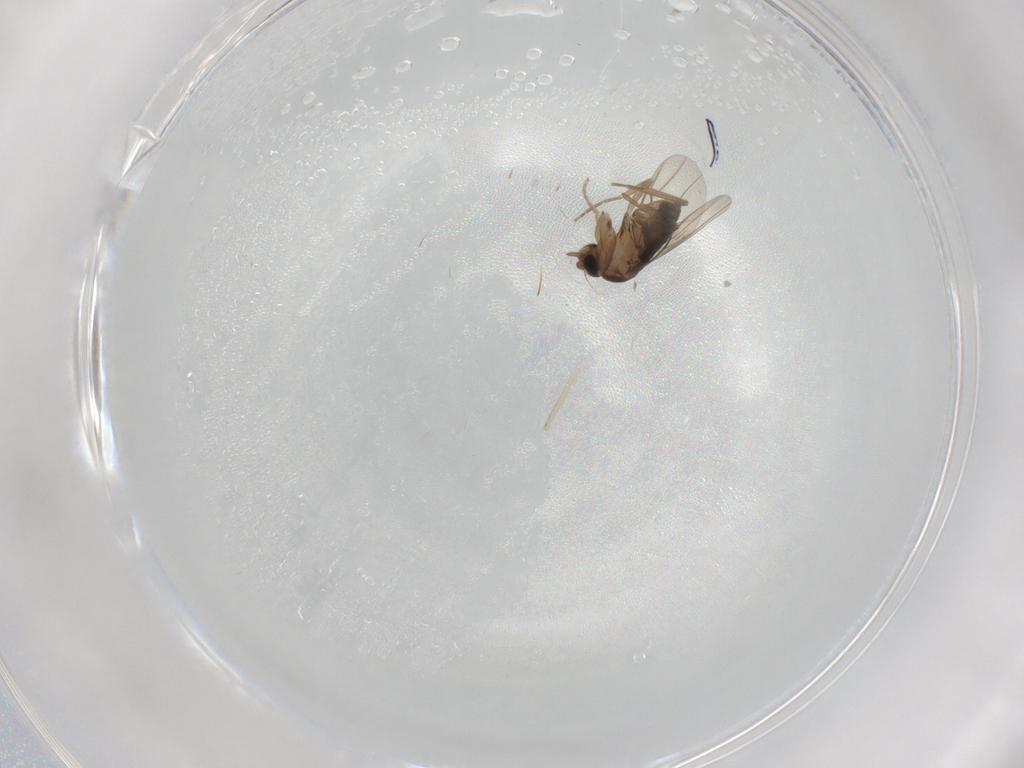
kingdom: Animalia
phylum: Arthropoda
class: Insecta
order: Diptera
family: Phoridae
